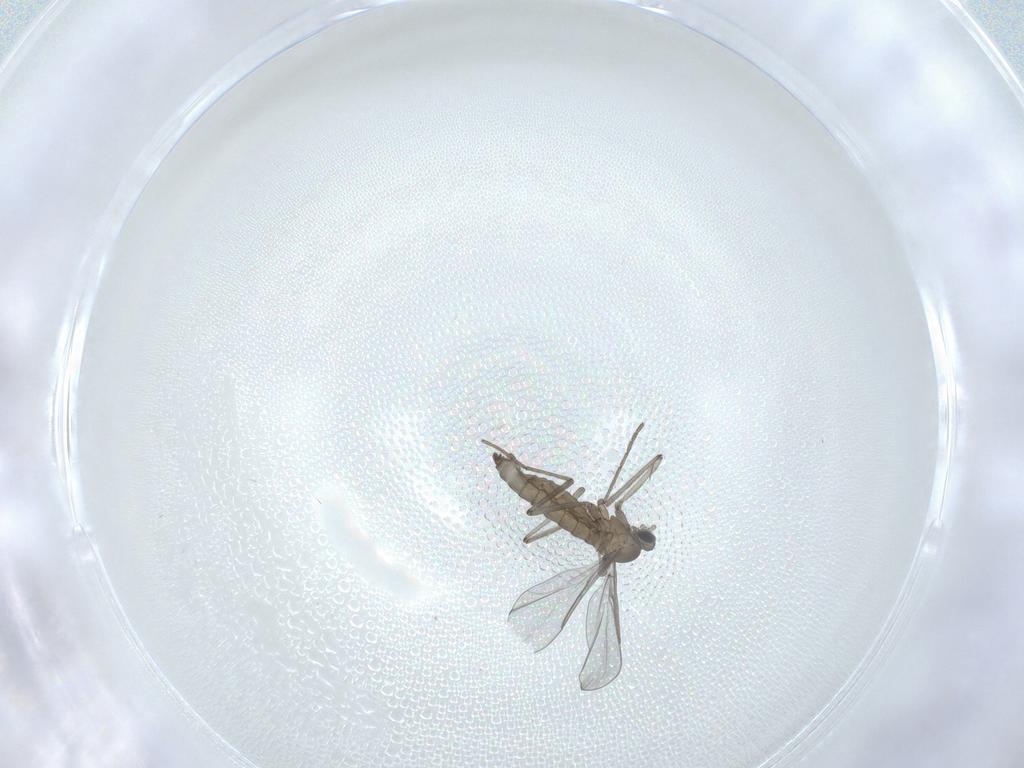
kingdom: Animalia
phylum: Arthropoda
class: Insecta
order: Diptera
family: Cecidomyiidae
